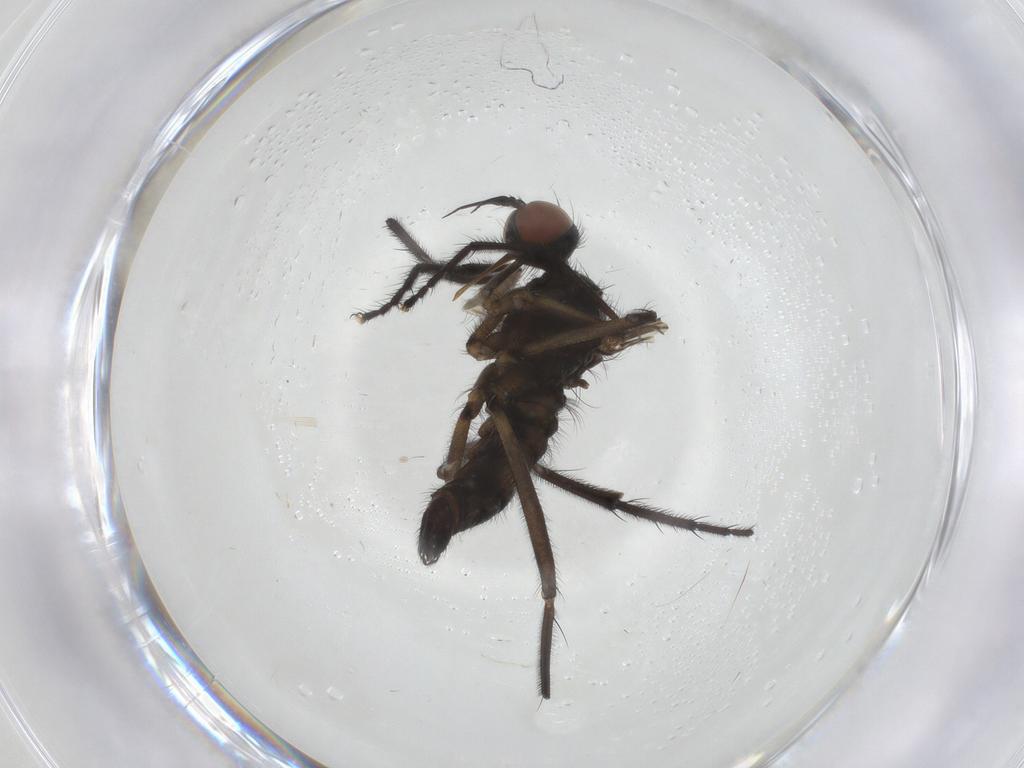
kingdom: Animalia
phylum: Arthropoda
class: Insecta
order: Diptera
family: Empididae
